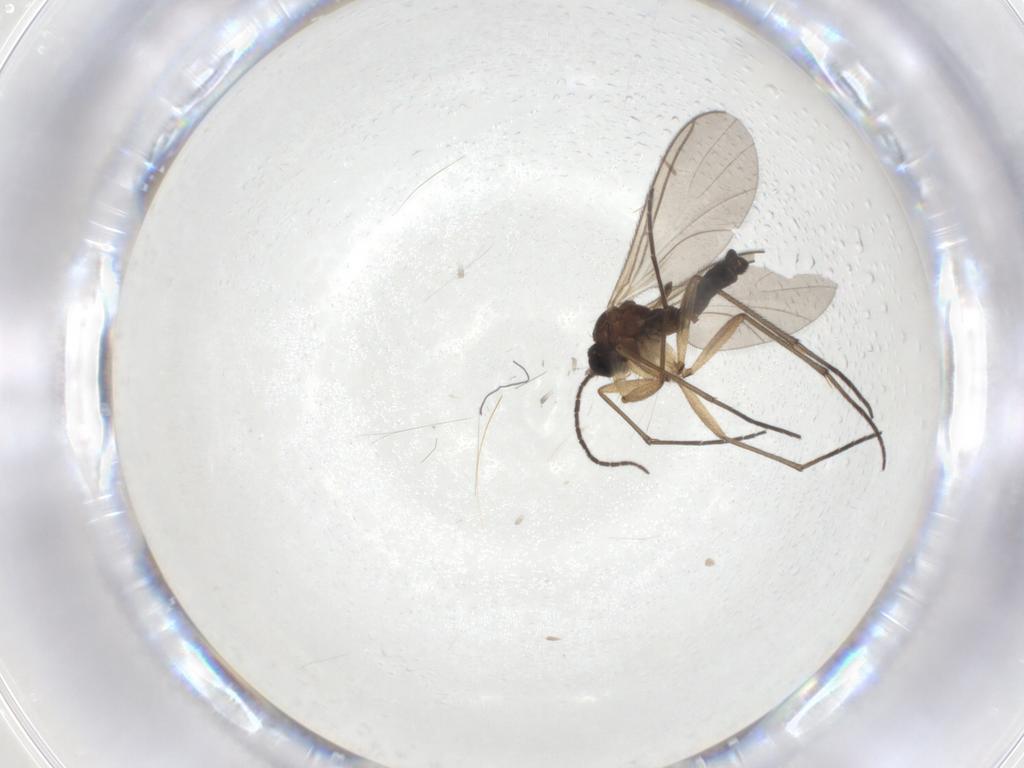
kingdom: Animalia
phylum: Arthropoda
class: Insecta
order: Diptera
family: Sciaridae
